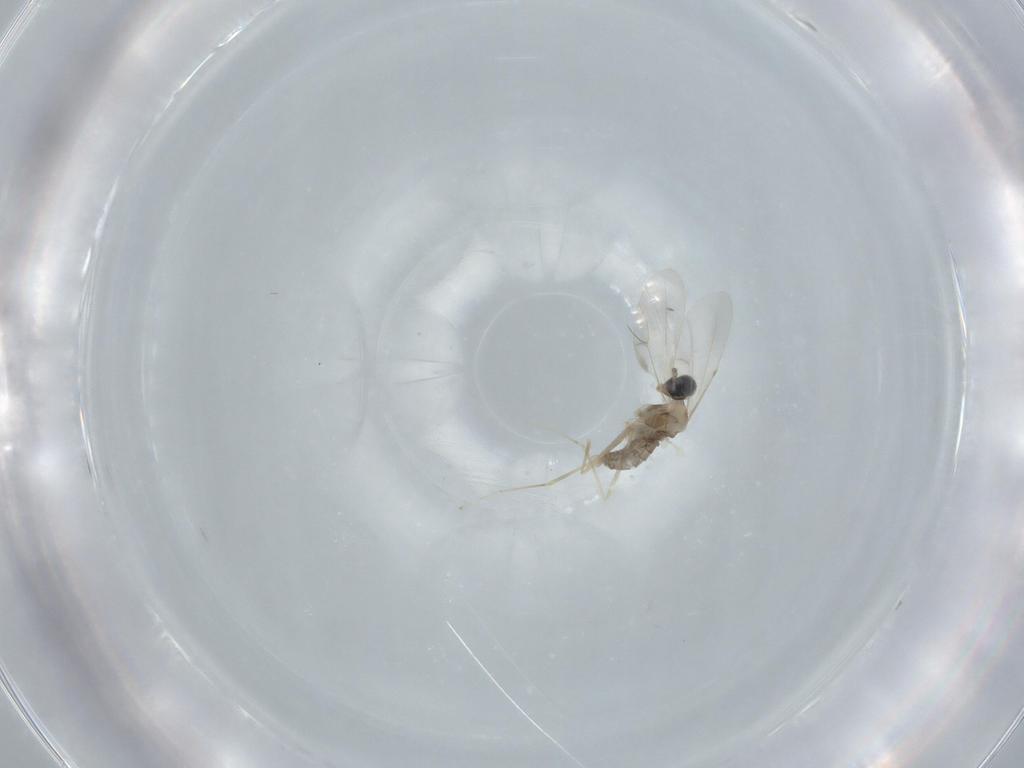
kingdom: Animalia
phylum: Arthropoda
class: Insecta
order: Diptera
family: Cecidomyiidae
